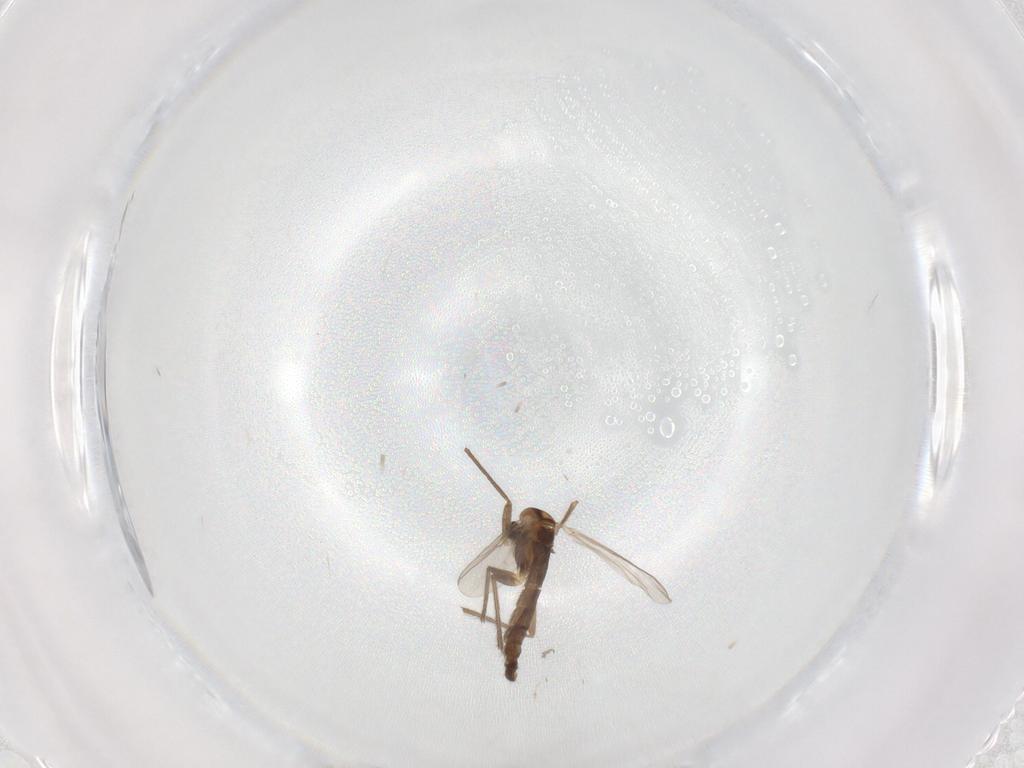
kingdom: Animalia
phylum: Arthropoda
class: Insecta
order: Diptera
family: Chironomidae
